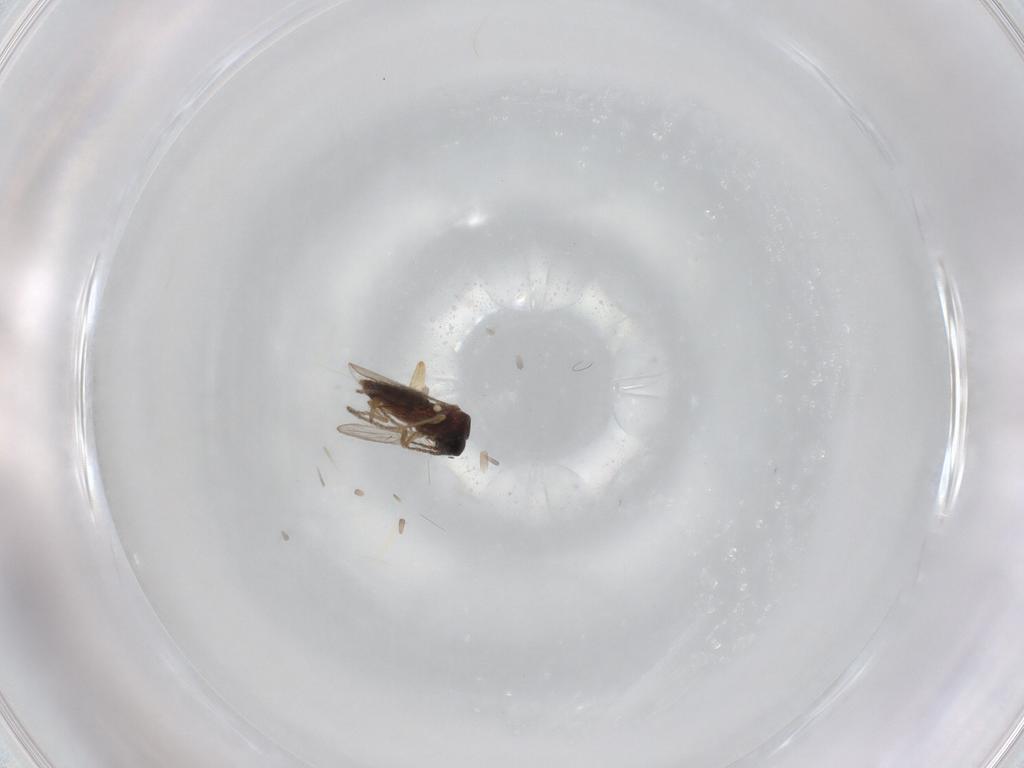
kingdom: Animalia
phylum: Arthropoda
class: Insecta
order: Diptera
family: Ceratopogonidae
